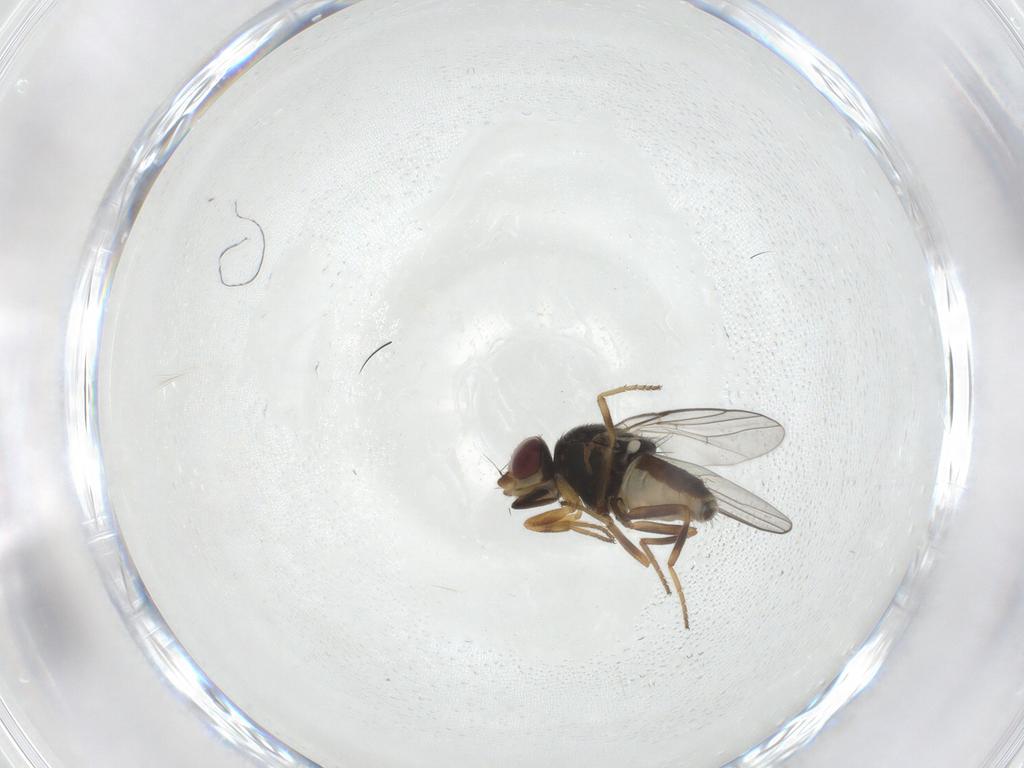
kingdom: Animalia
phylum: Arthropoda
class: Insecta
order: Diptera
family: Chloropidae
